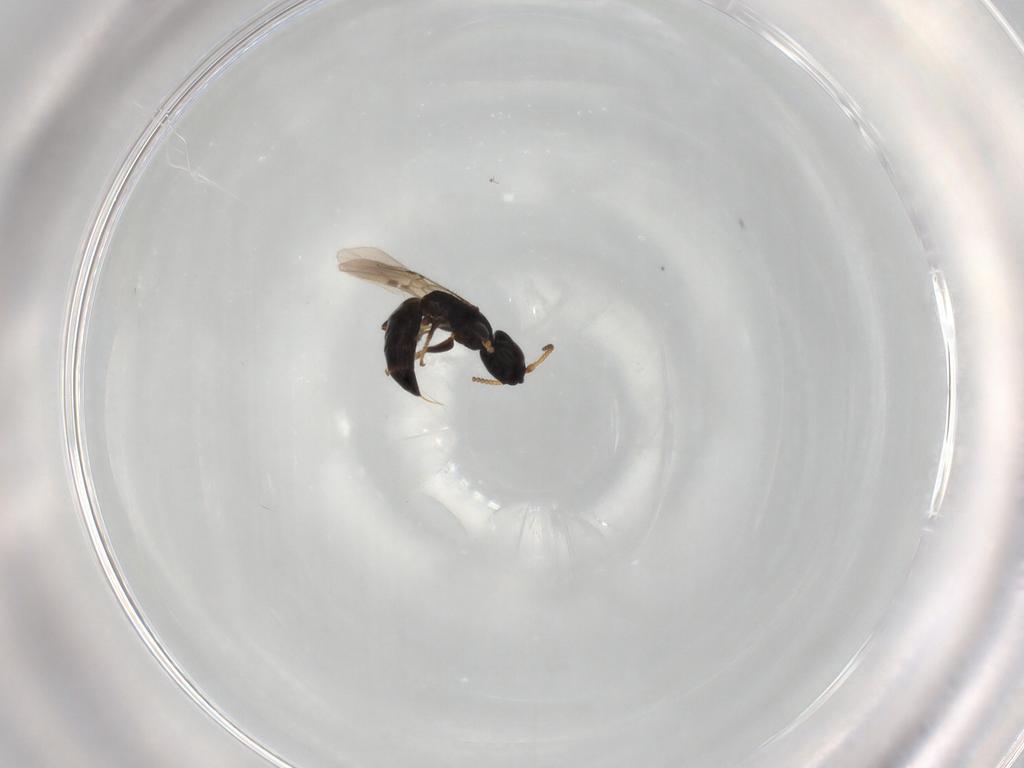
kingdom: Animalia
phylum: Arthropoda
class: Insecta
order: Hymenoptera
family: Bethylidae
